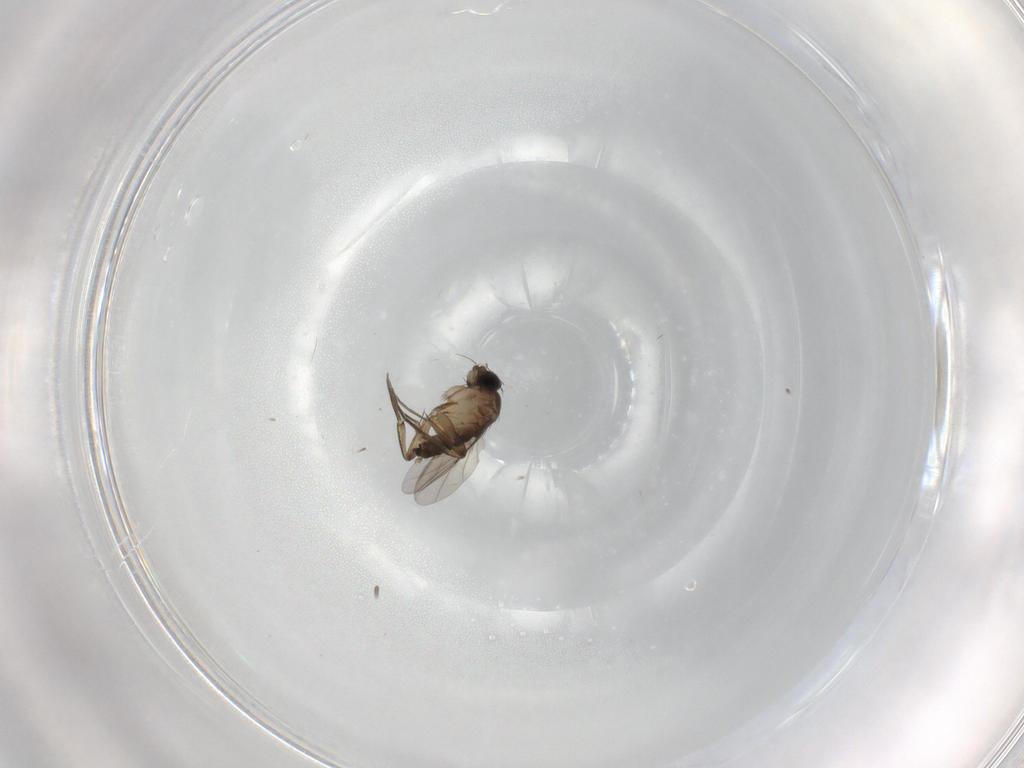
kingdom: Animalia
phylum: Arthropoda
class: Insecta
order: Diptera
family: Phoridae
